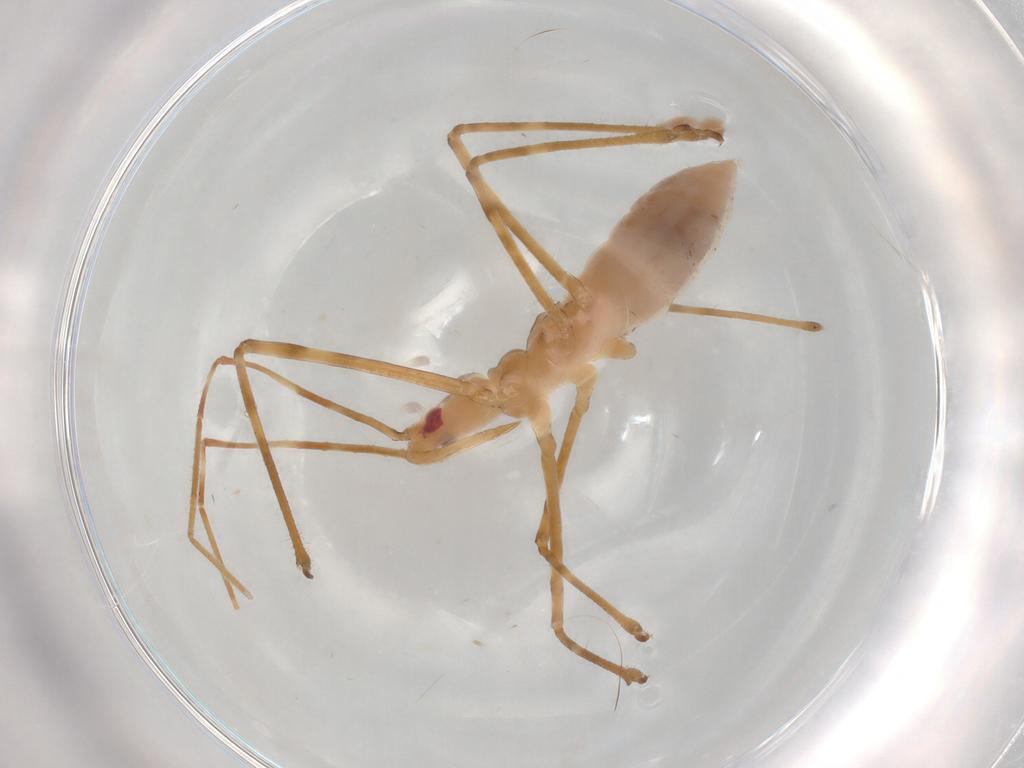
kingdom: Animalia
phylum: Arthropoda
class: Insecta
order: Hemiptera
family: Reduviidae
